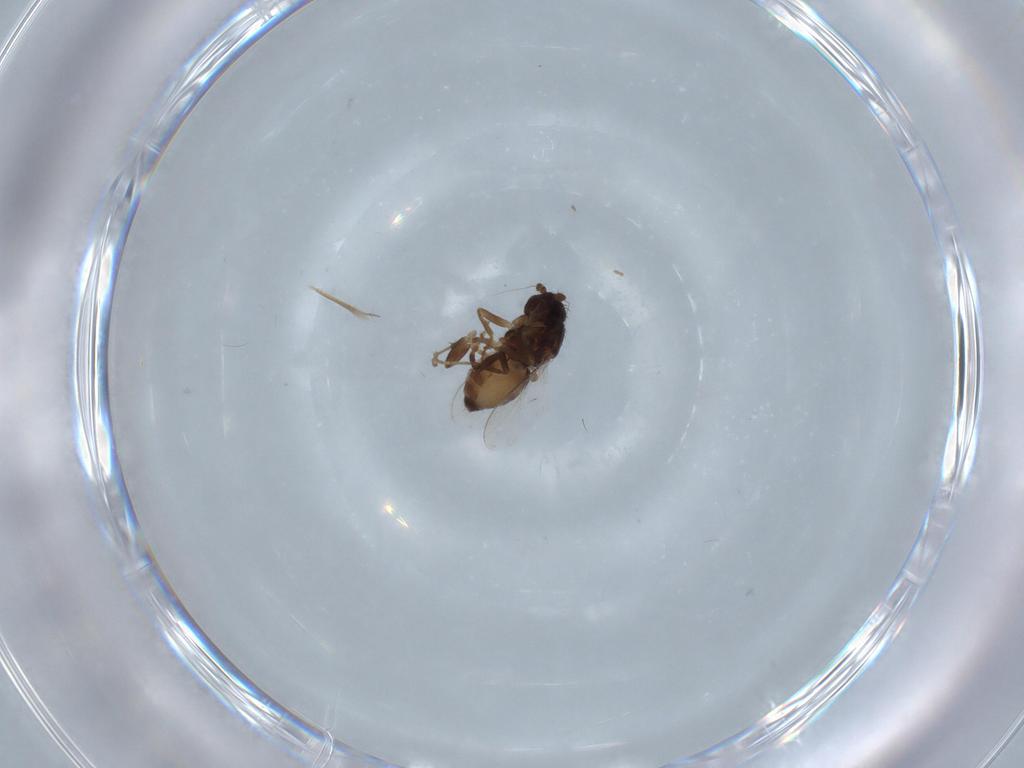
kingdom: Animalia
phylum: Arthropoda
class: Insecta
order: Diptera
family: Sphaeroceridae
